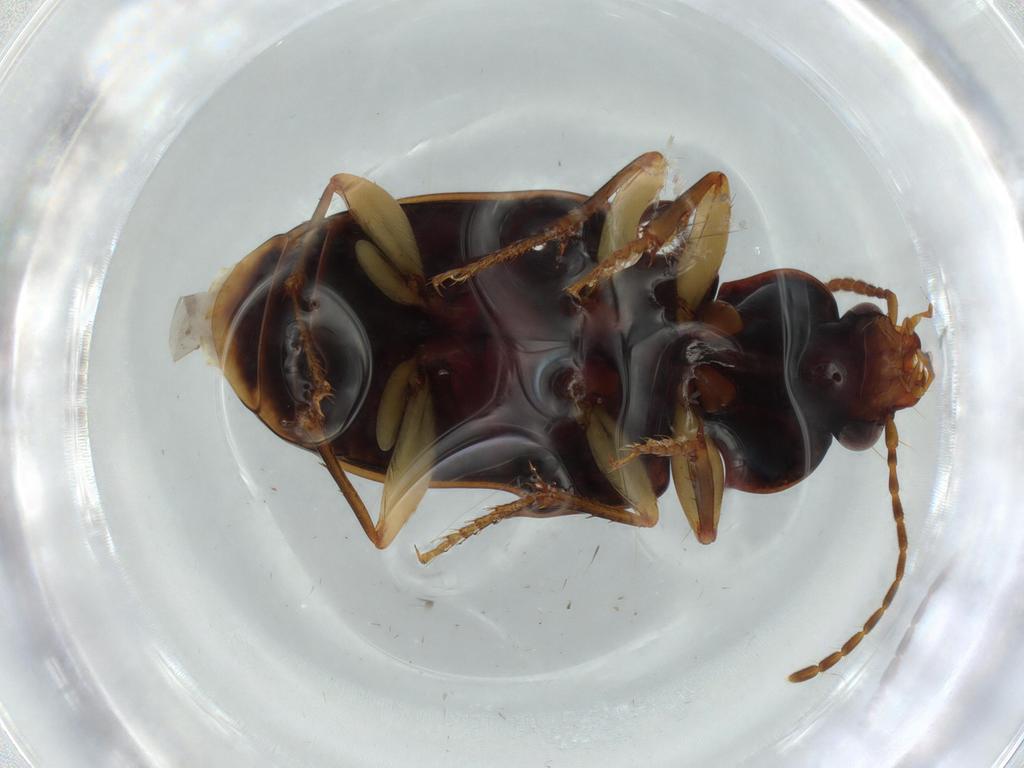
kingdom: Animalia
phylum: Arthropoda
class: Insecta
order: Coleoptera
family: Carabidae
